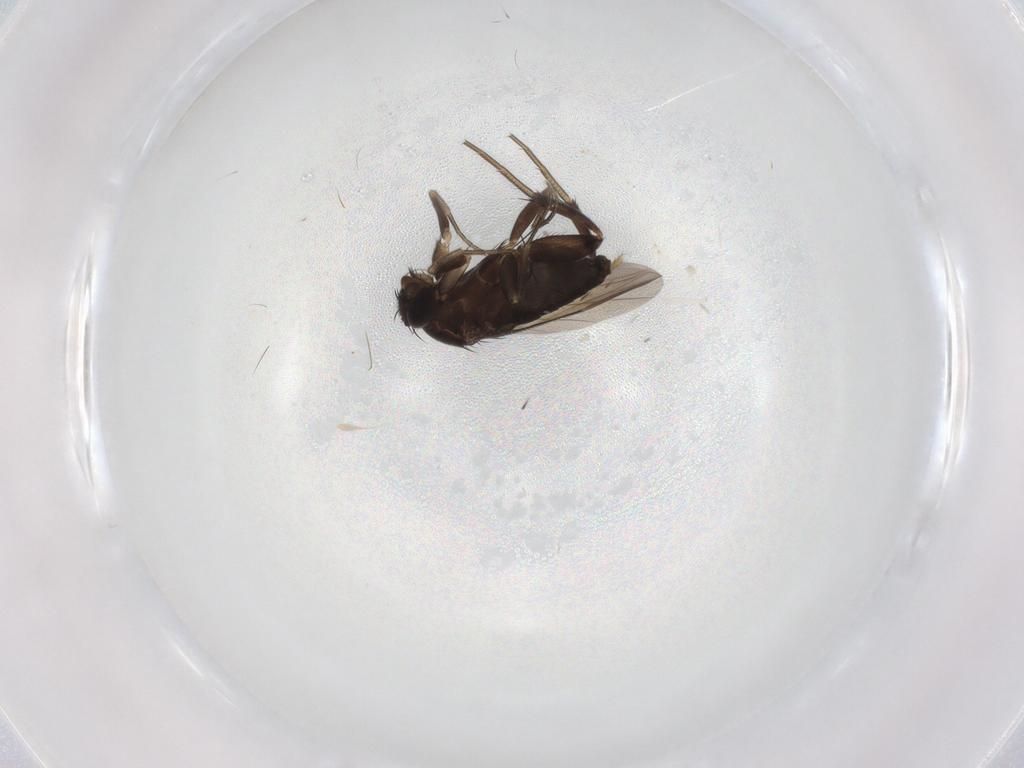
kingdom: Animalia
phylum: Arthropoda
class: Insecta
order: Diptera
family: Phoridae
